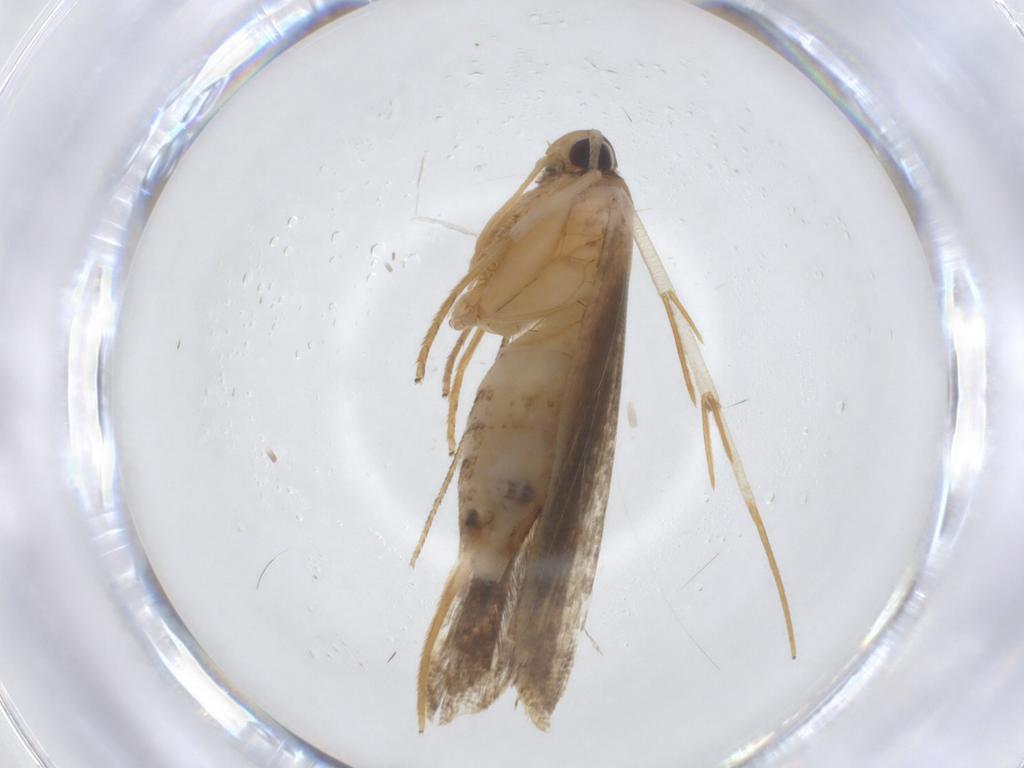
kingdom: Animalia
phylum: Arthropoda
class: Insecta
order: Lepidoptera
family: Lecithoceridae
